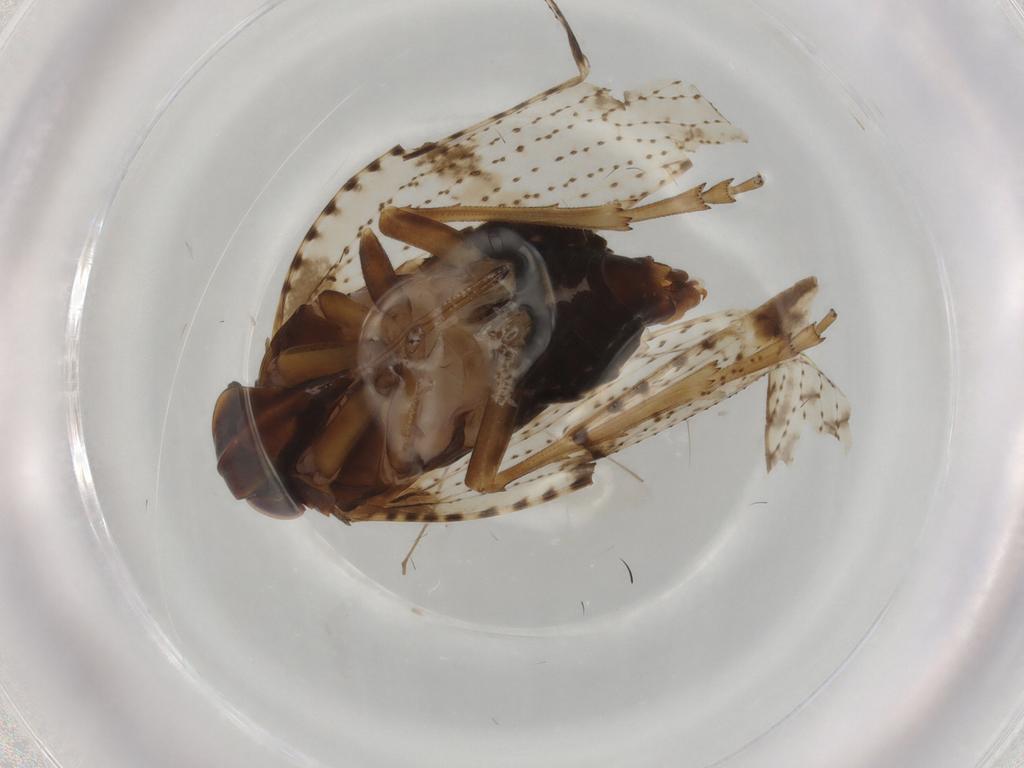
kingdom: Animalia
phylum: Arthropoda
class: Insecta
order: Hemiptera
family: Cixiidae
